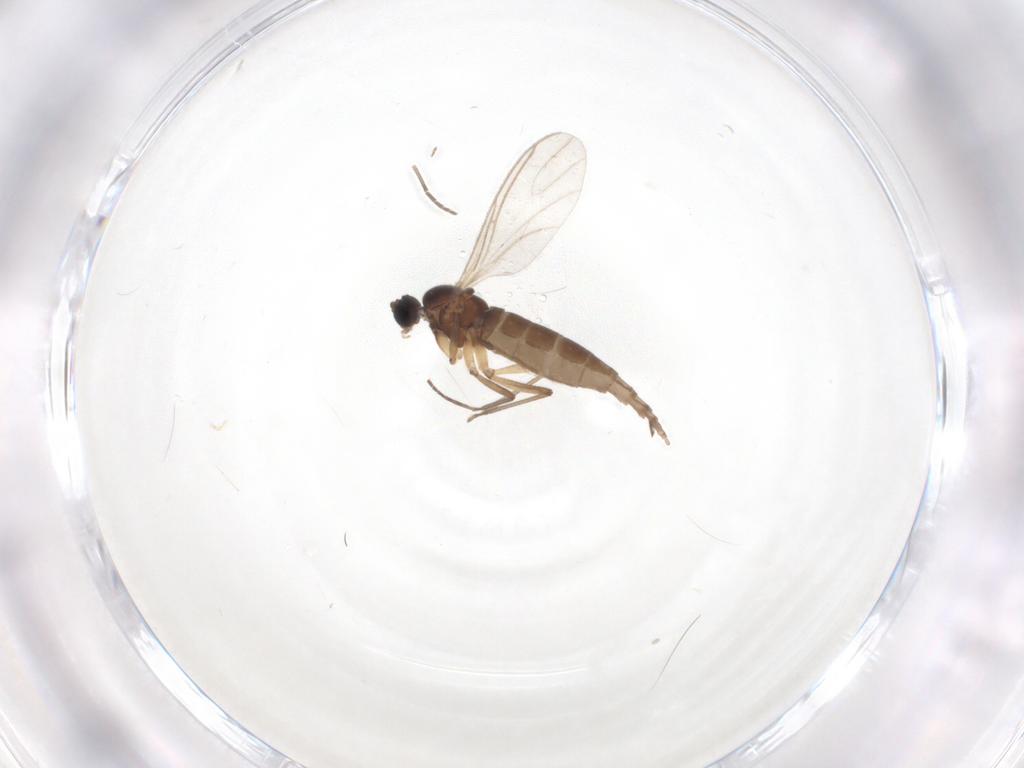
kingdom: Animalia
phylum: Arthropoda
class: Insecta
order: Diptera
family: Sciaridae
